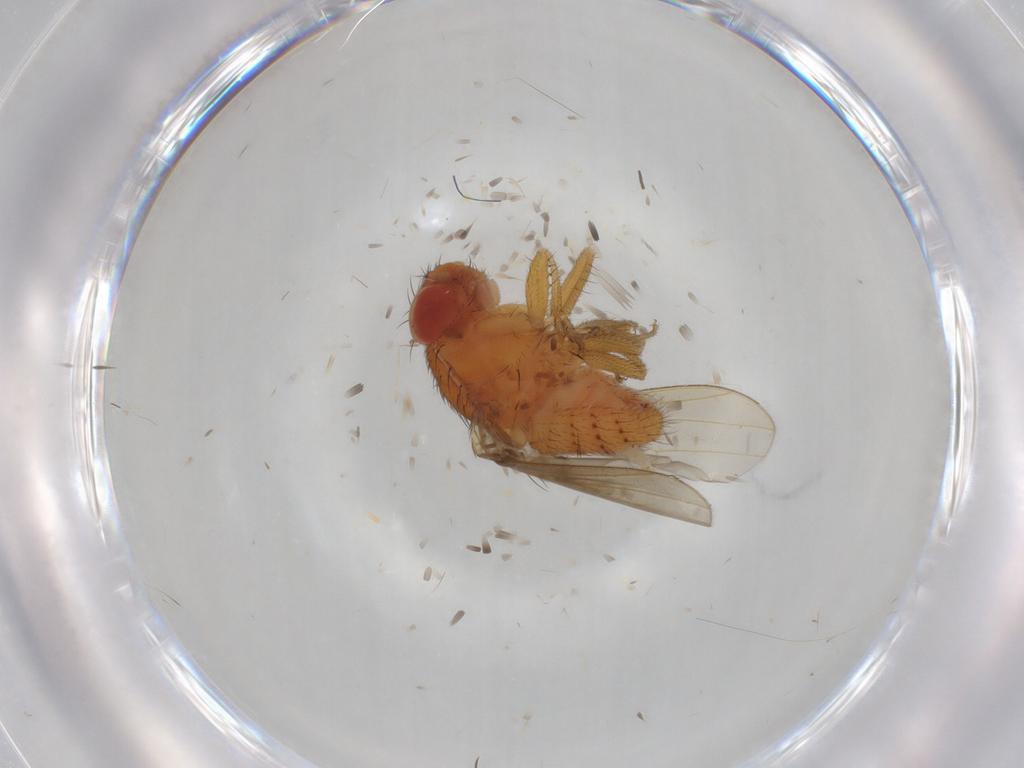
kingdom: Animalia
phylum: Arthropoda
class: Insecta
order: Diptera
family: Drosophilidae
